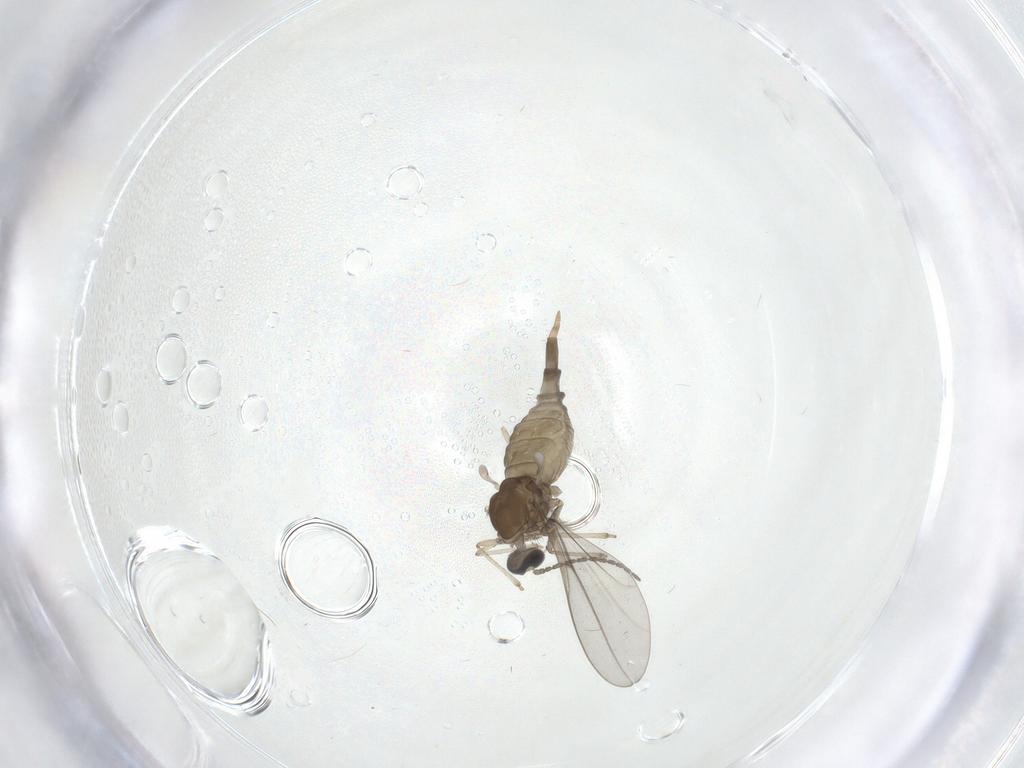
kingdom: Animalia
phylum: Arthropoda
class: Insecta
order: Diptera
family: Cecidomyiidae
